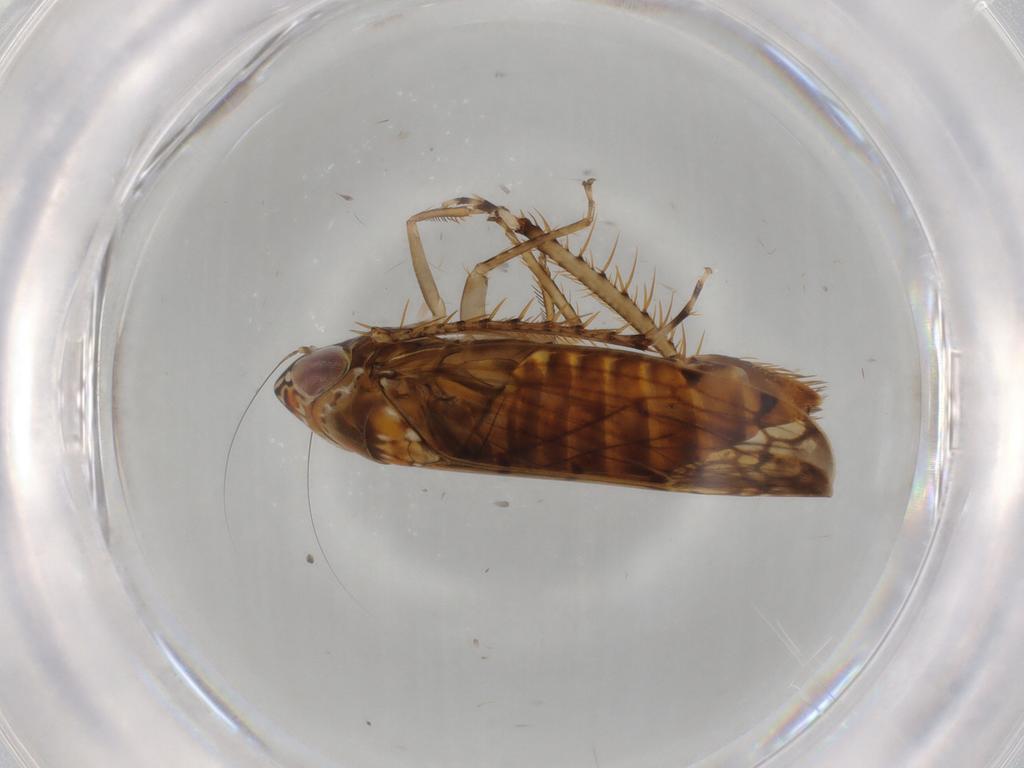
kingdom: Animalia
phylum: Arthropoda
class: Insecta
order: Hemiptera
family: Cicadellidae
